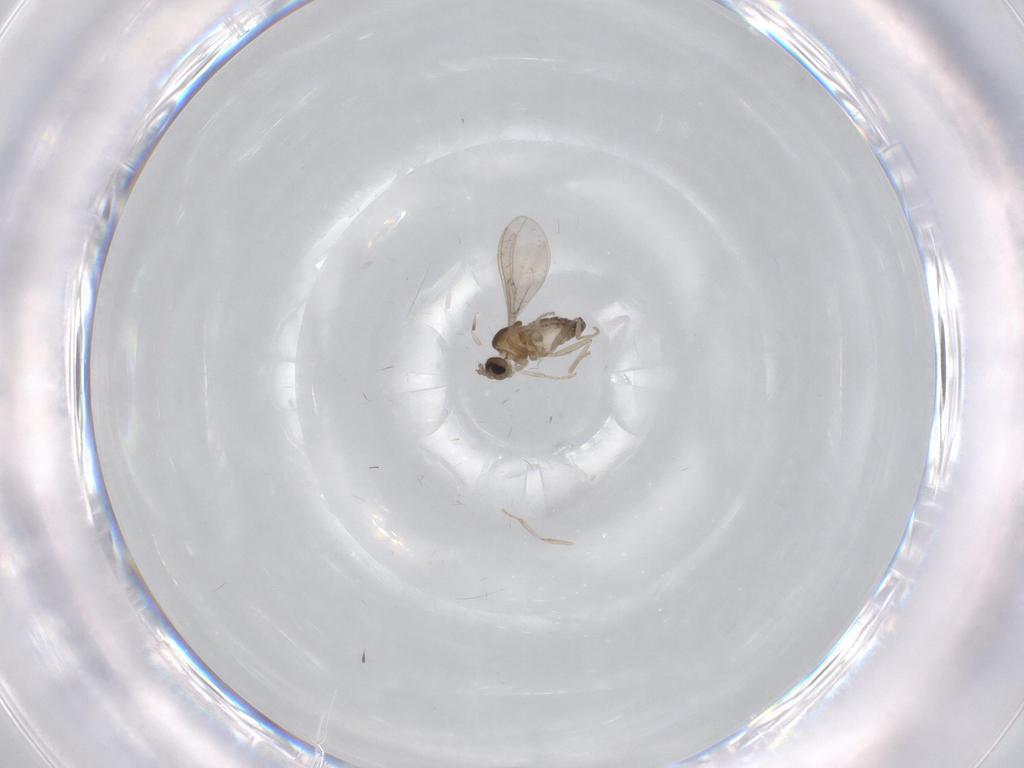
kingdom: Animalia
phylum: Arthropoda
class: Insecta
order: Diptera
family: Cecidomyiidae
